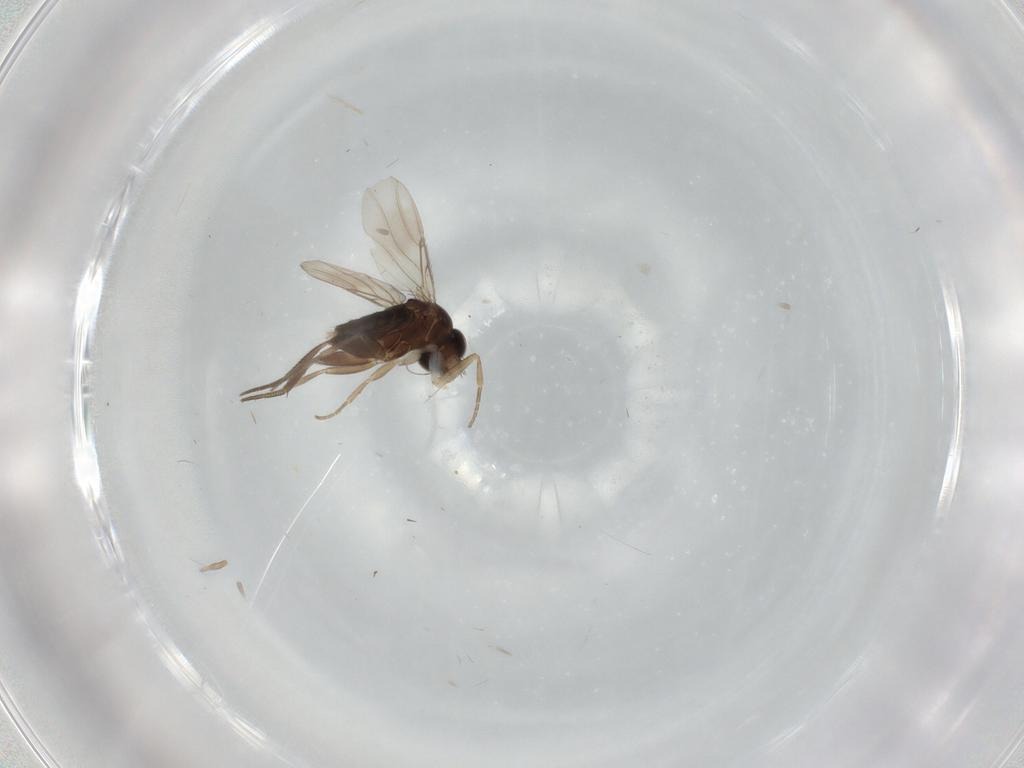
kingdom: Animalia
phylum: Arthropoda
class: Insecta
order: Diptera
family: Phoridae
